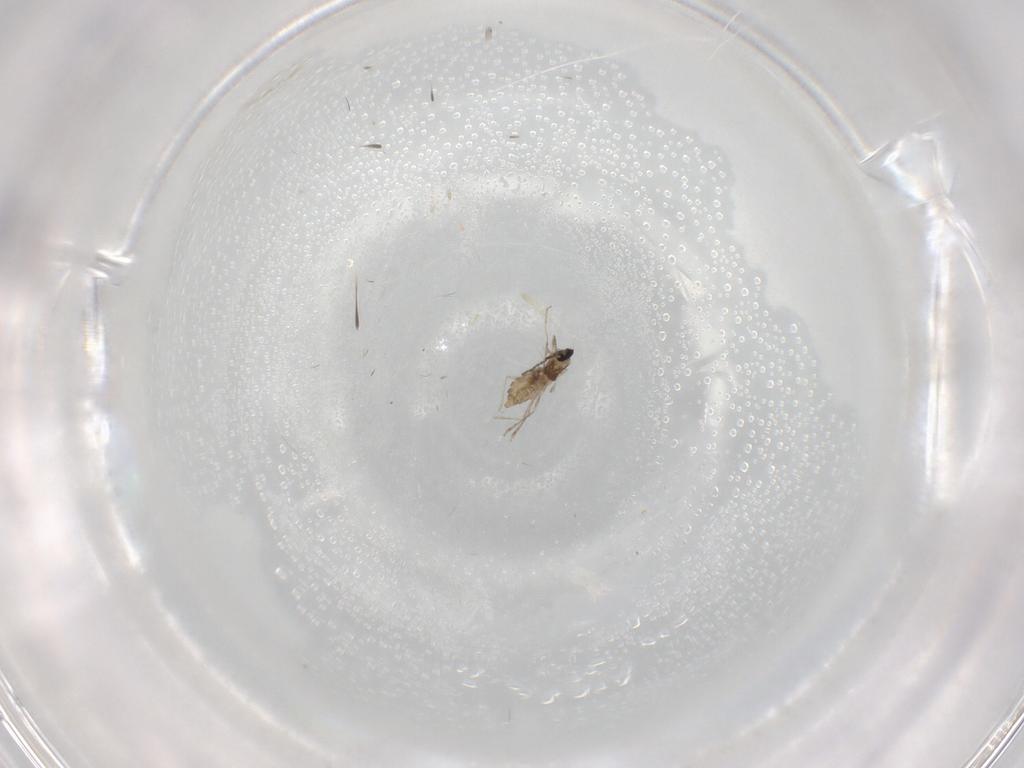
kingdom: Animalia
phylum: Arthropoda
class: Insecta
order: Diptera
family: Cecidomyiidae
